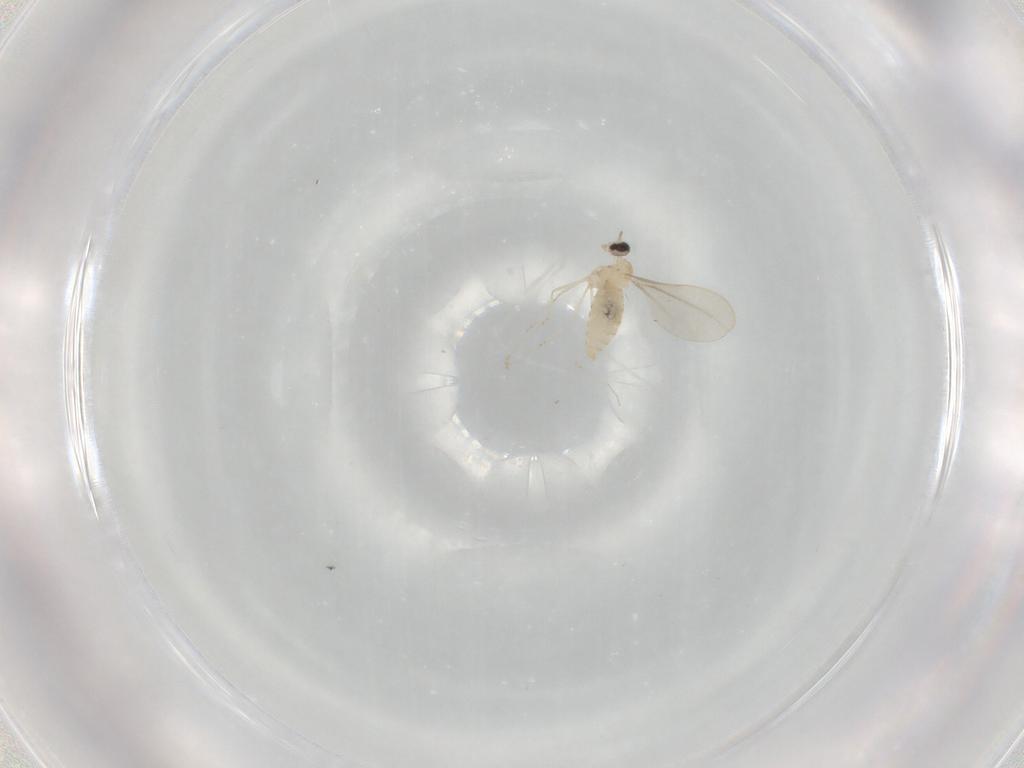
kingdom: Animalia
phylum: Arthropoda
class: Insecta
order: Diptera
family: Cecidomyiidae
